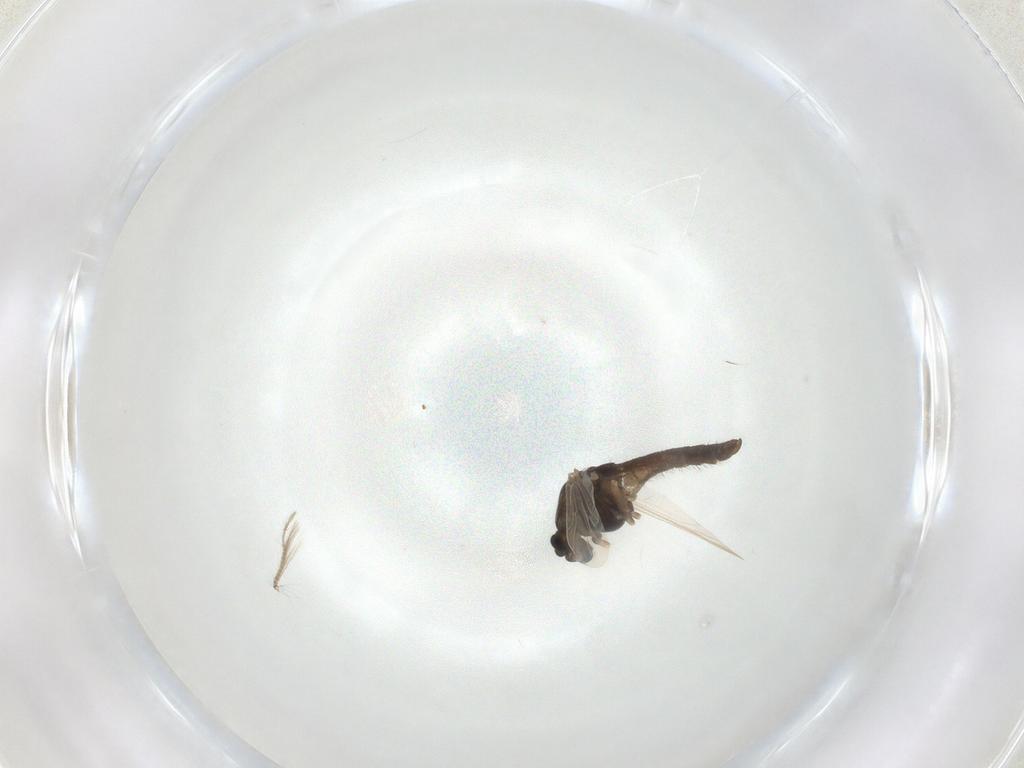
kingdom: Animalia
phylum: Arthropoda
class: Insecta
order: Diptera
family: Chironomidae
